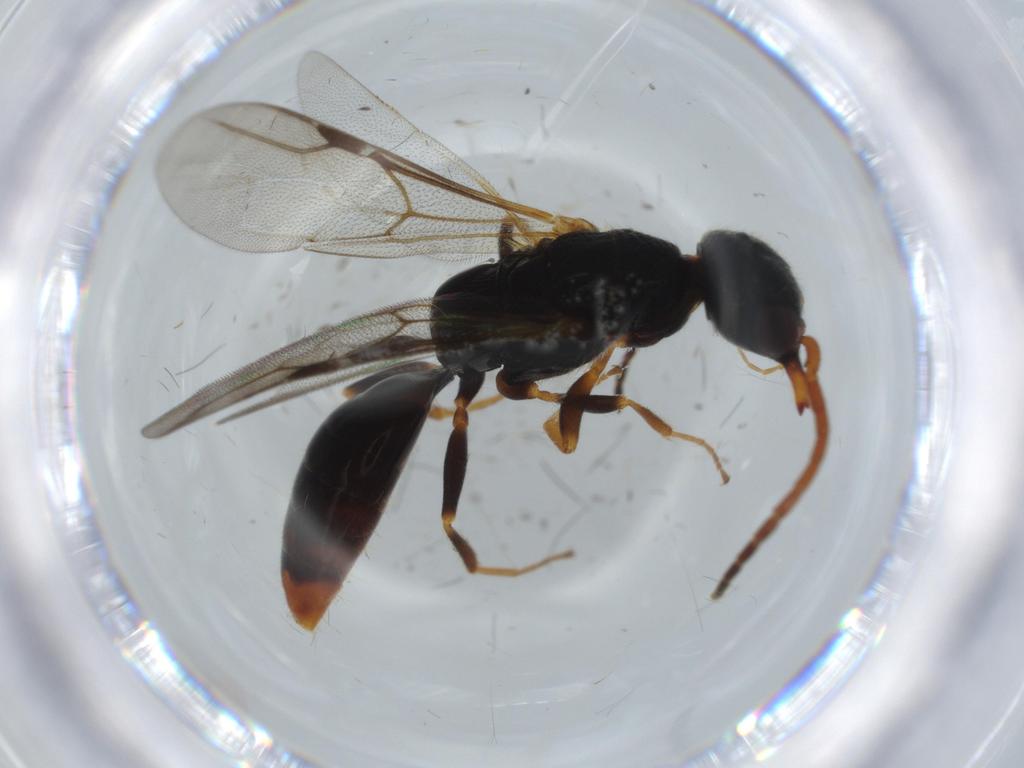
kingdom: Animalia
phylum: Arthropoda
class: Insecta
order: Hymenoptera
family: Bethylidae
